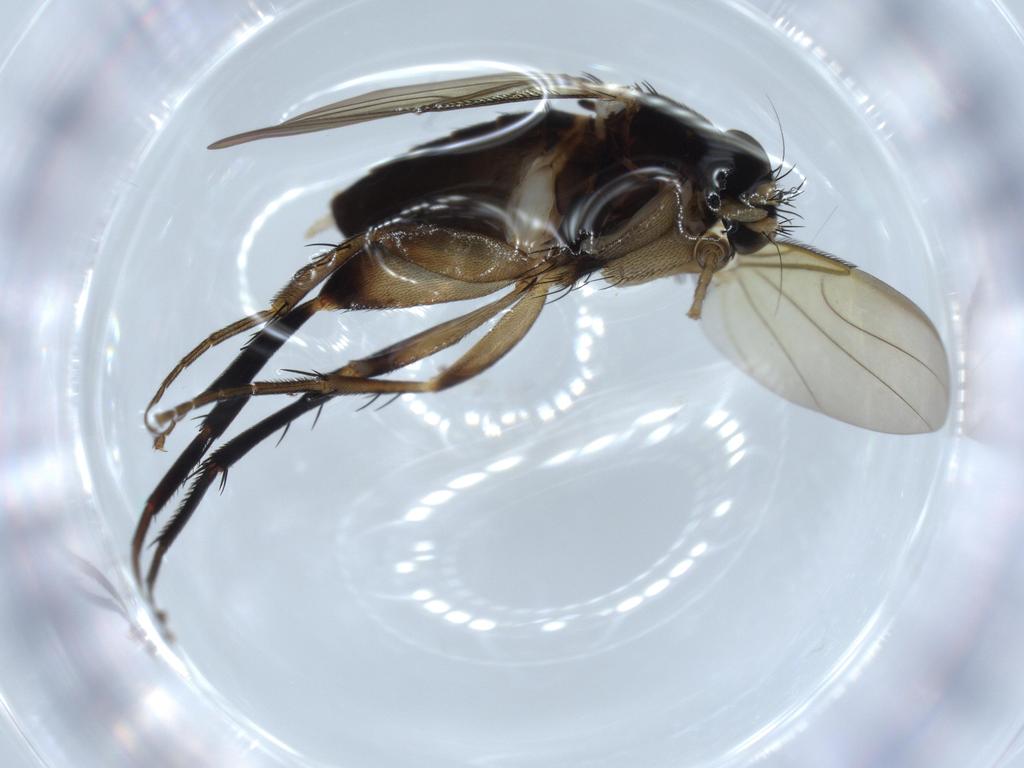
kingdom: Animalia
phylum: Arthropoda
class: Insecta
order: Diptera
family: Phoridae
